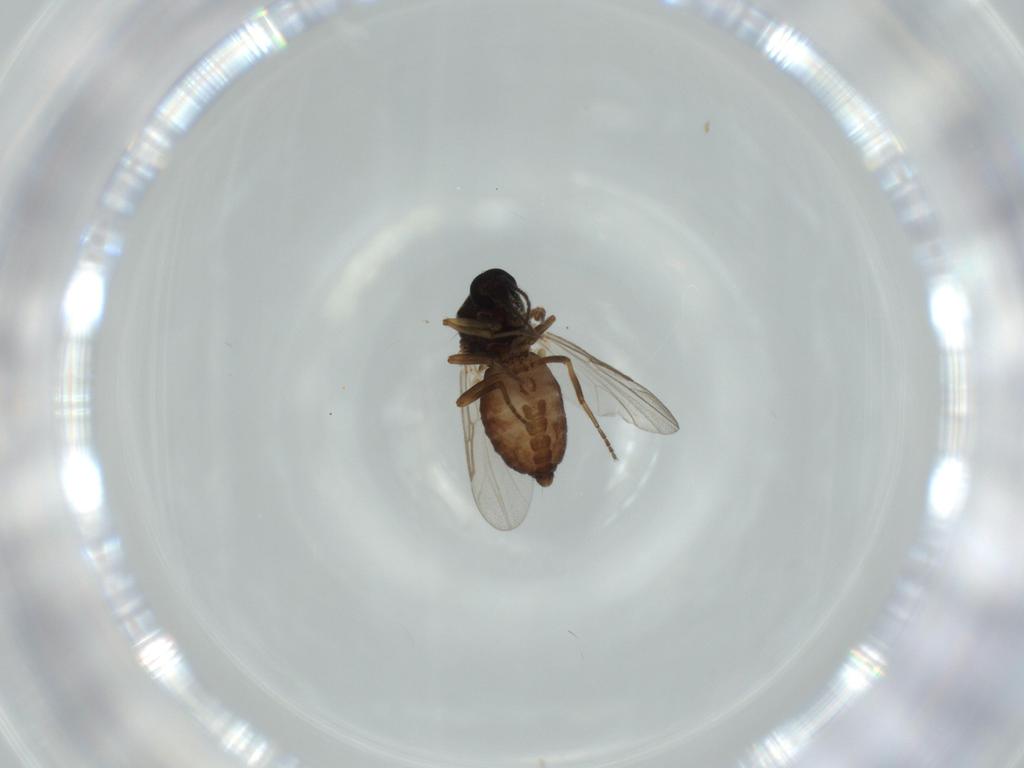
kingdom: Animalia
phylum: Arthropoda
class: Insecta
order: Diptera
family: Ceratopogonidae
